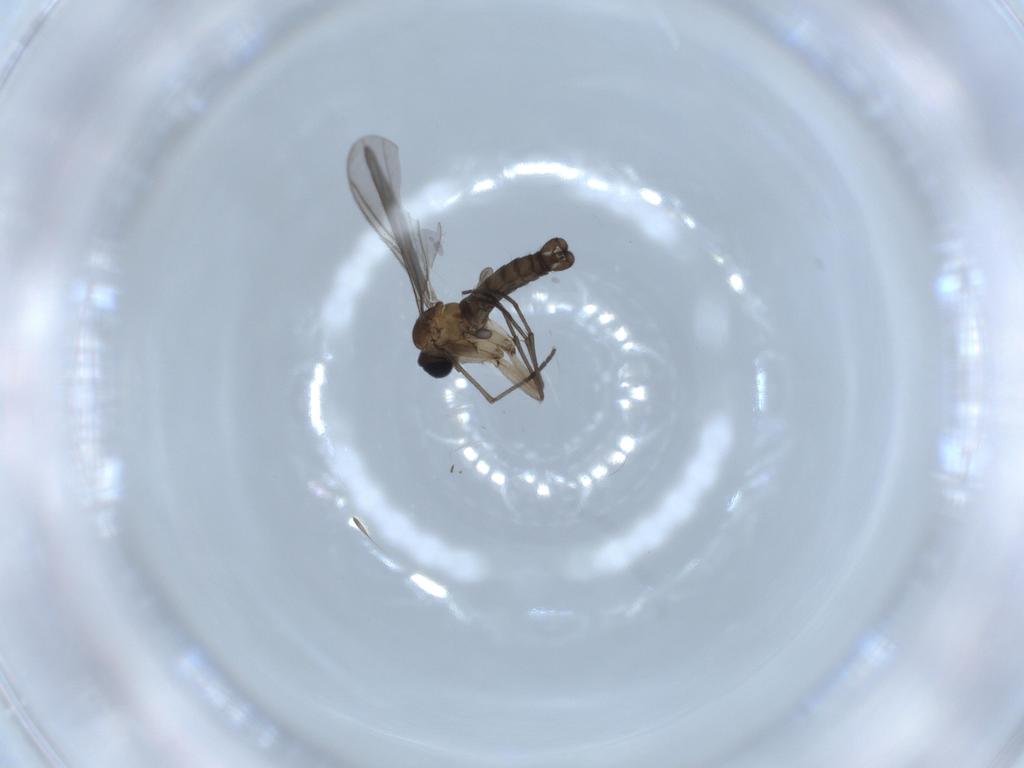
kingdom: Animalia
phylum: Arthropoda
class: Insecta
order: Diptera
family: Sciaridae
